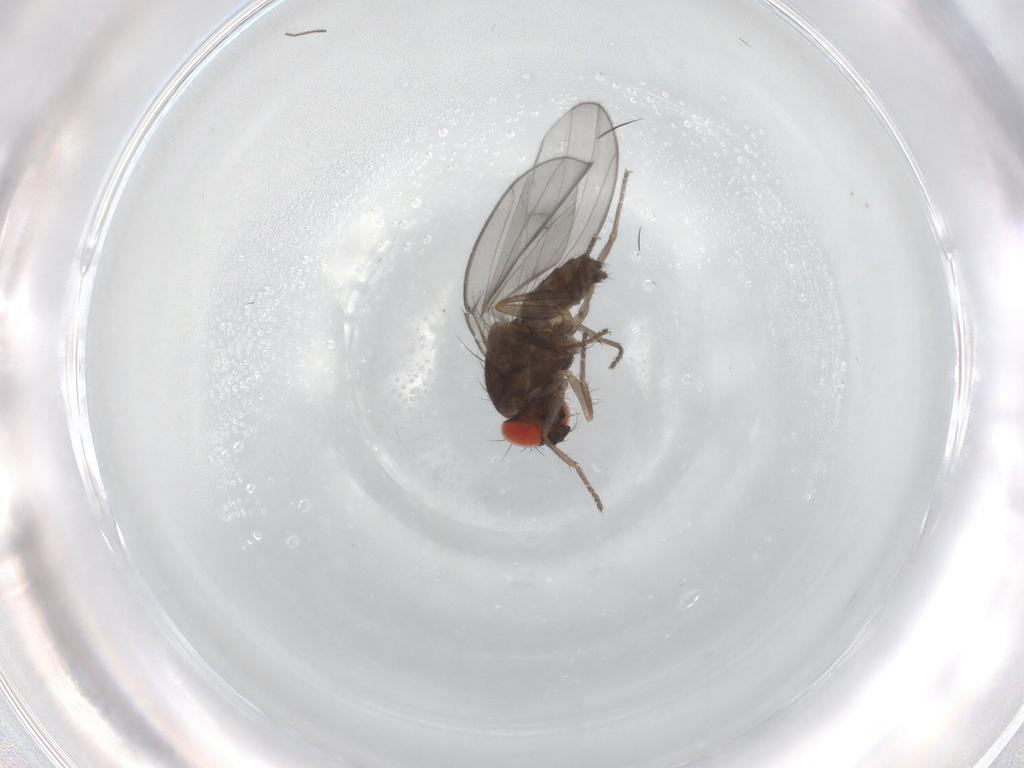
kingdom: Animalia
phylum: Arthropoda
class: Insecta
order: Diptera
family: Drosophilidae
